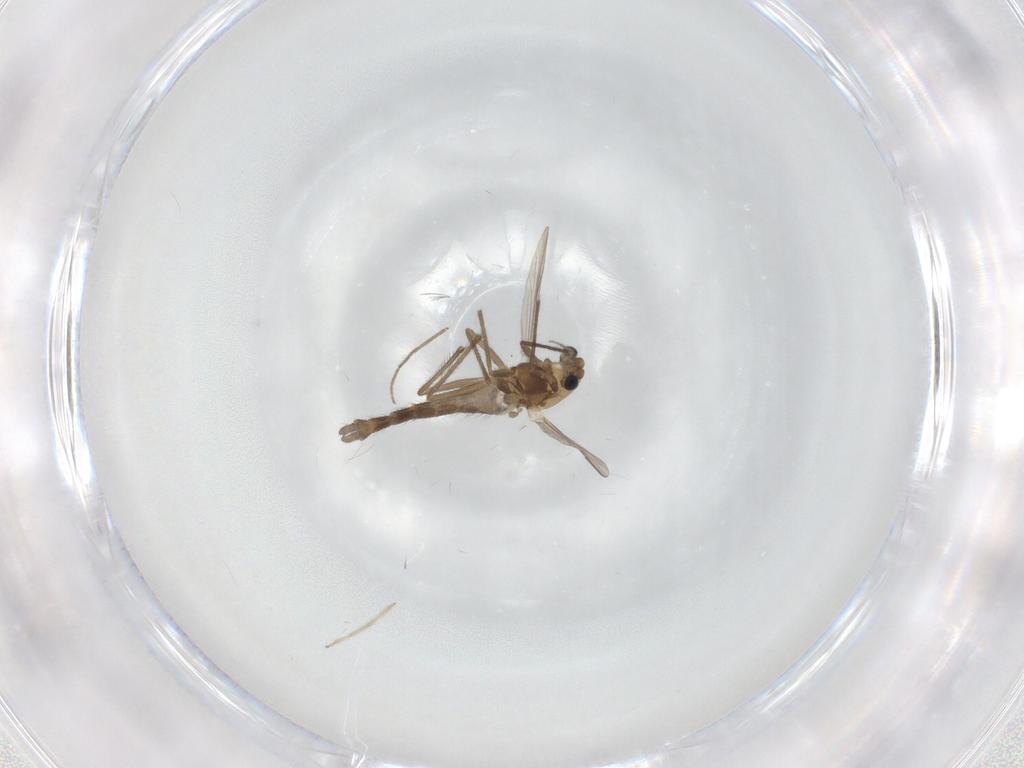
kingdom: Animalia
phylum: Arthropoda
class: Insecta
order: Diptera
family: Chironomidae
